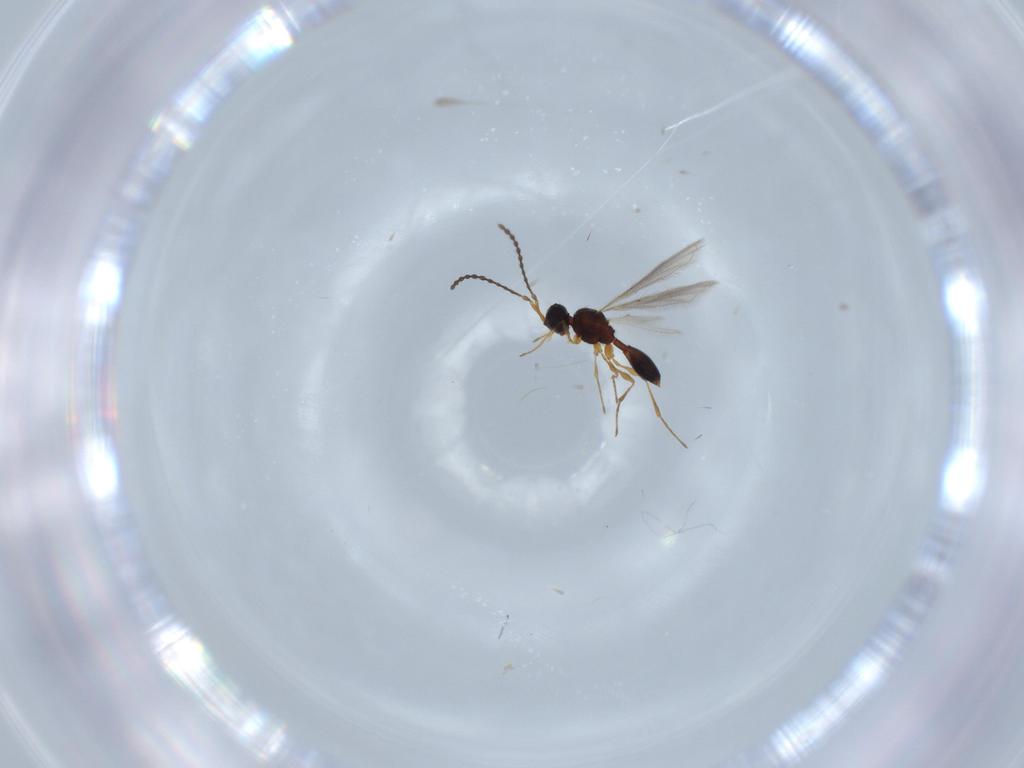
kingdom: Animalia
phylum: Arthropoda
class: Insecta
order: Hymenoptera
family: Diapriidae
